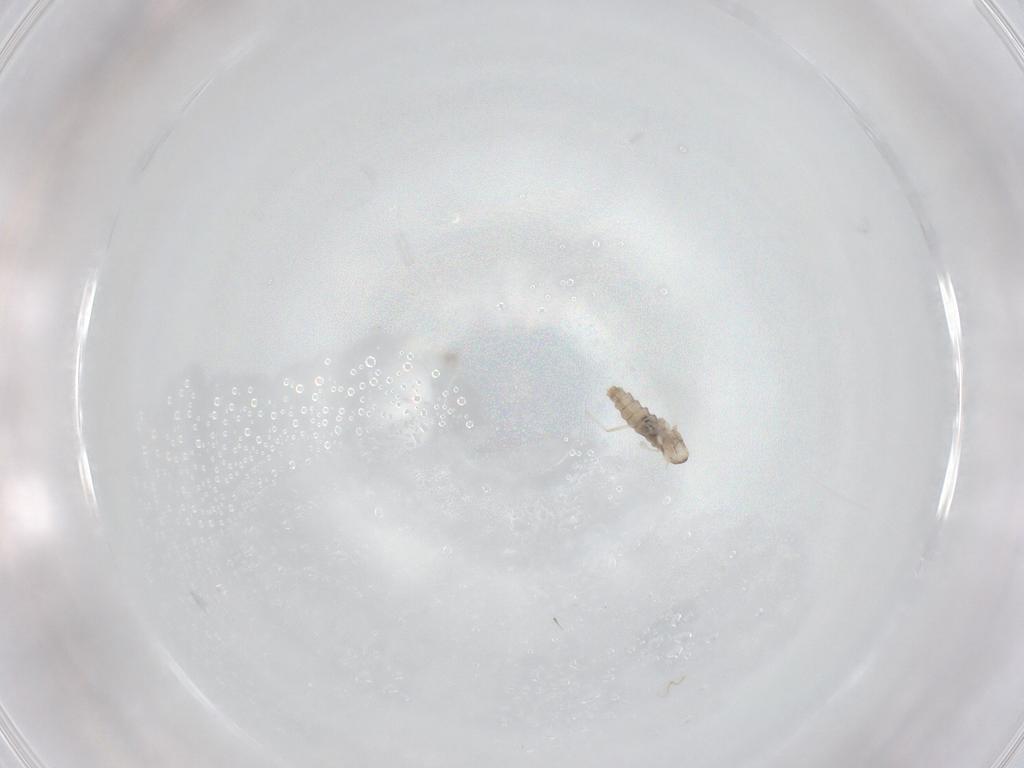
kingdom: Animalia
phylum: Arthropoda
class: Insecta
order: Diptera
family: Cecidomyiidae
